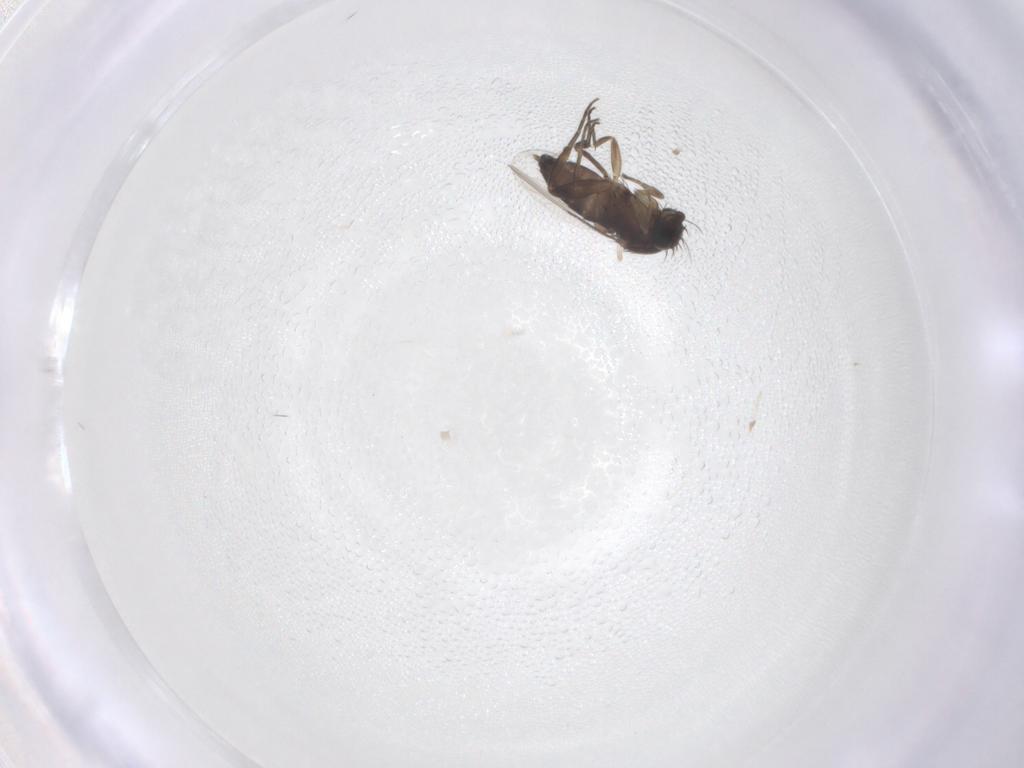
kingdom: Animalia
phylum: Arthropoda
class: Insecta
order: Diptera
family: Phoridae
